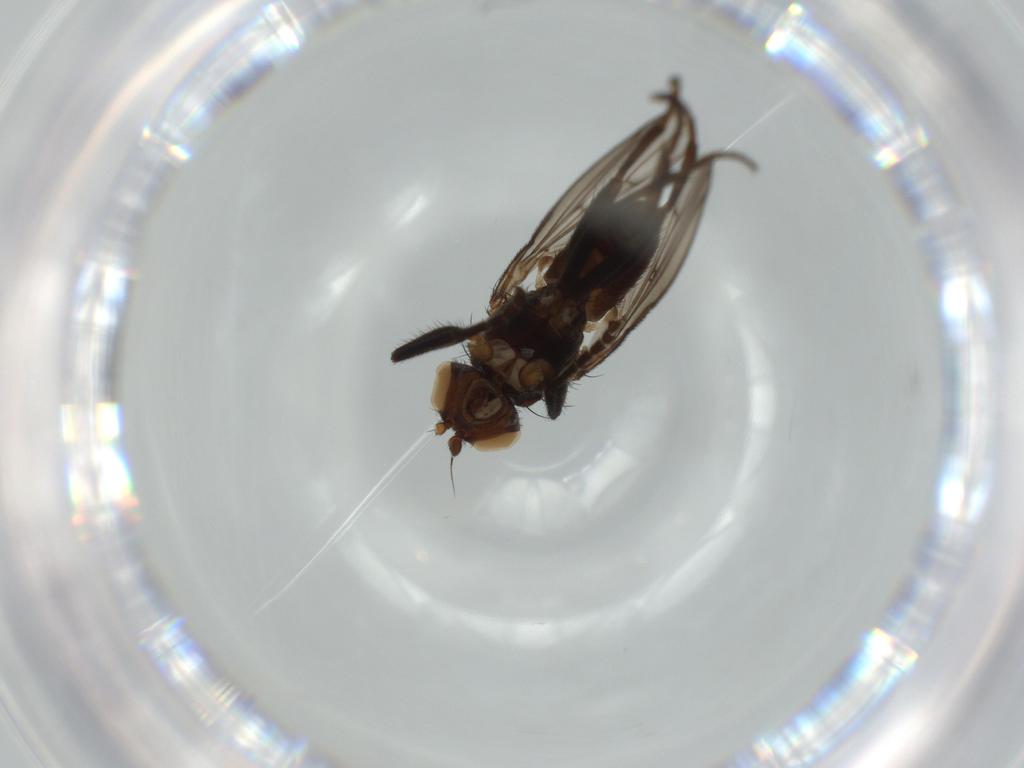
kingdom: Animalia
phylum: Arthropoda
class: Insecta
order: Diptera
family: Sciomyzidae
